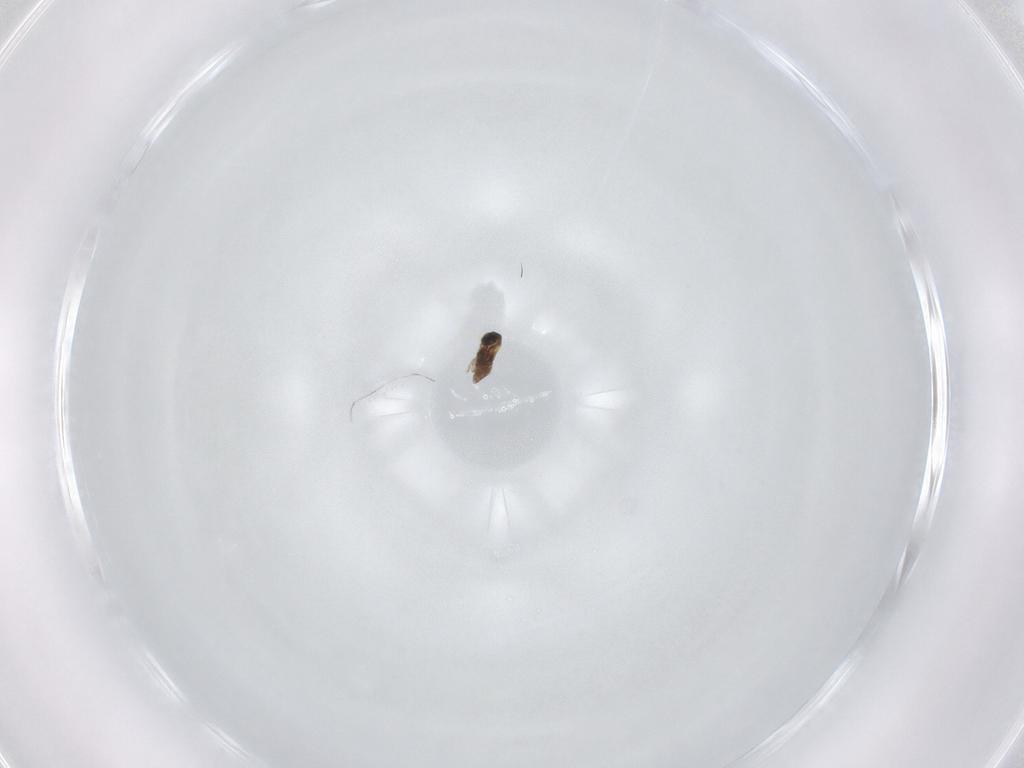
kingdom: Animalia
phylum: Arthropoda
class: Insecta
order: Diptera
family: Cecidomyiidae
